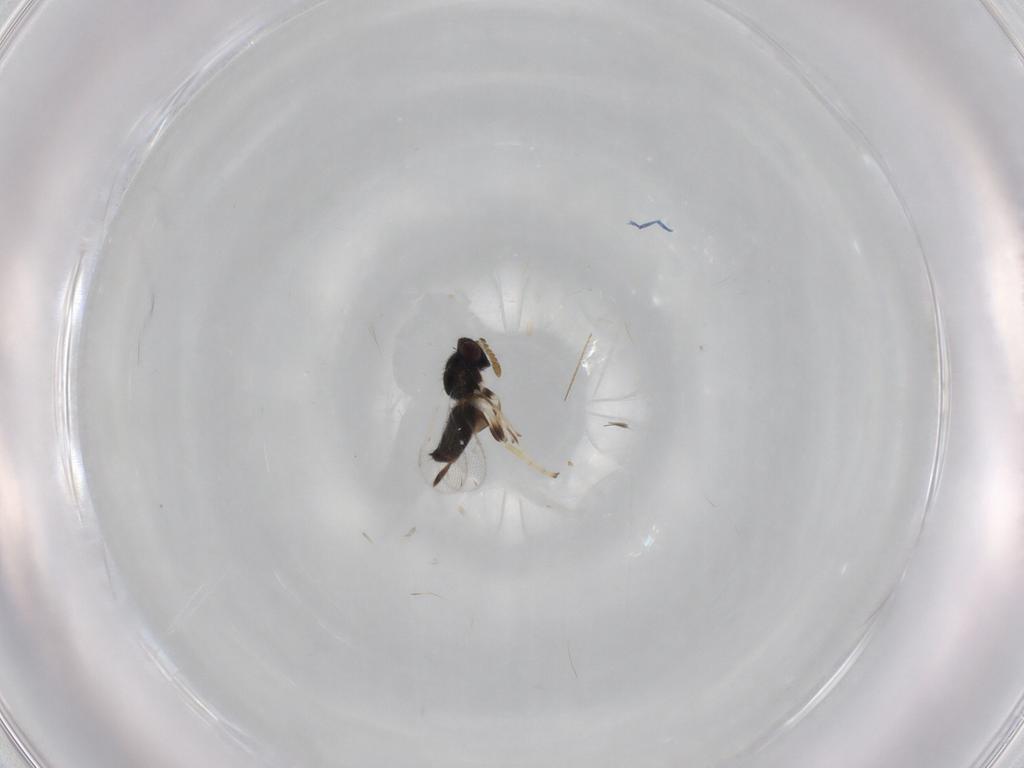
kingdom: Animalia
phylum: Arthropoda
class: Insecta
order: Hymenoptera
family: Pirenidae
